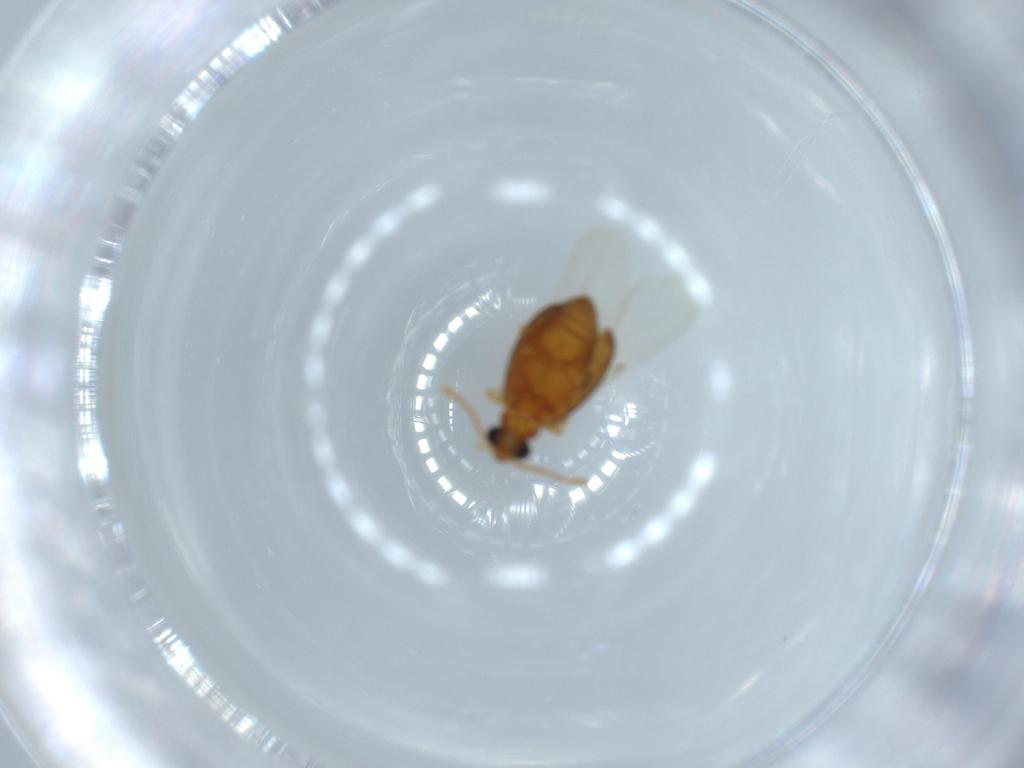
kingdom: Animalia
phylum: Arthropoda
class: Insecta
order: Coleoptera
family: Aderidae
